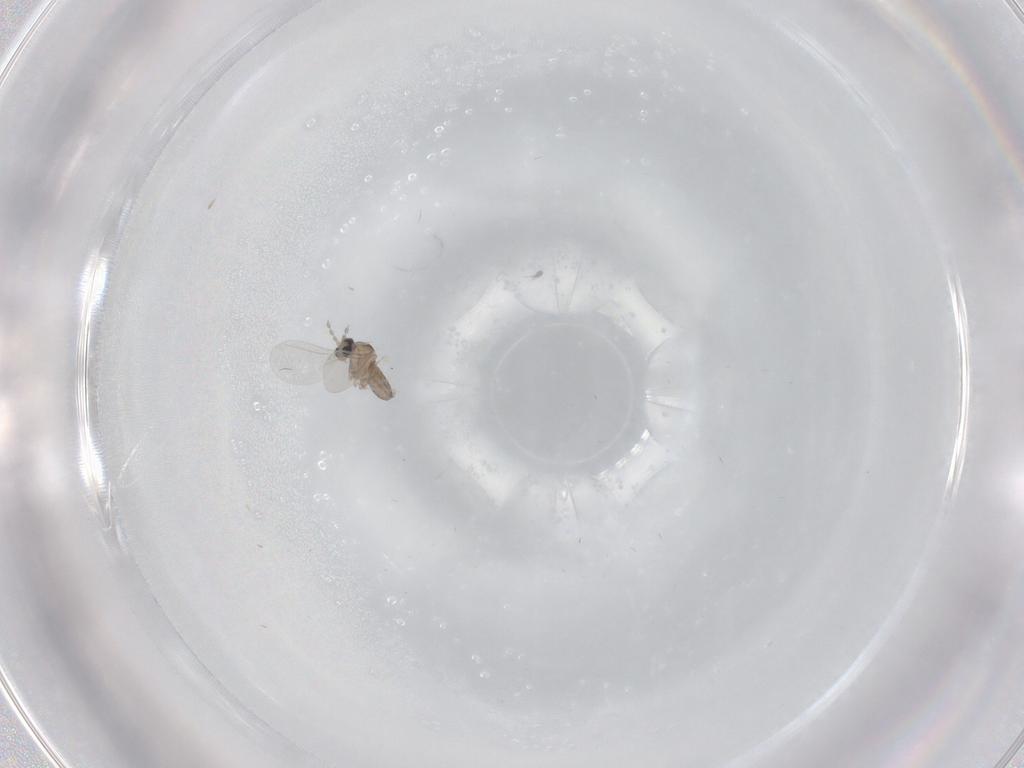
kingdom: Animalia
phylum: Arthropoda
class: Insecta
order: Diptera
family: Cecidomyiidae
